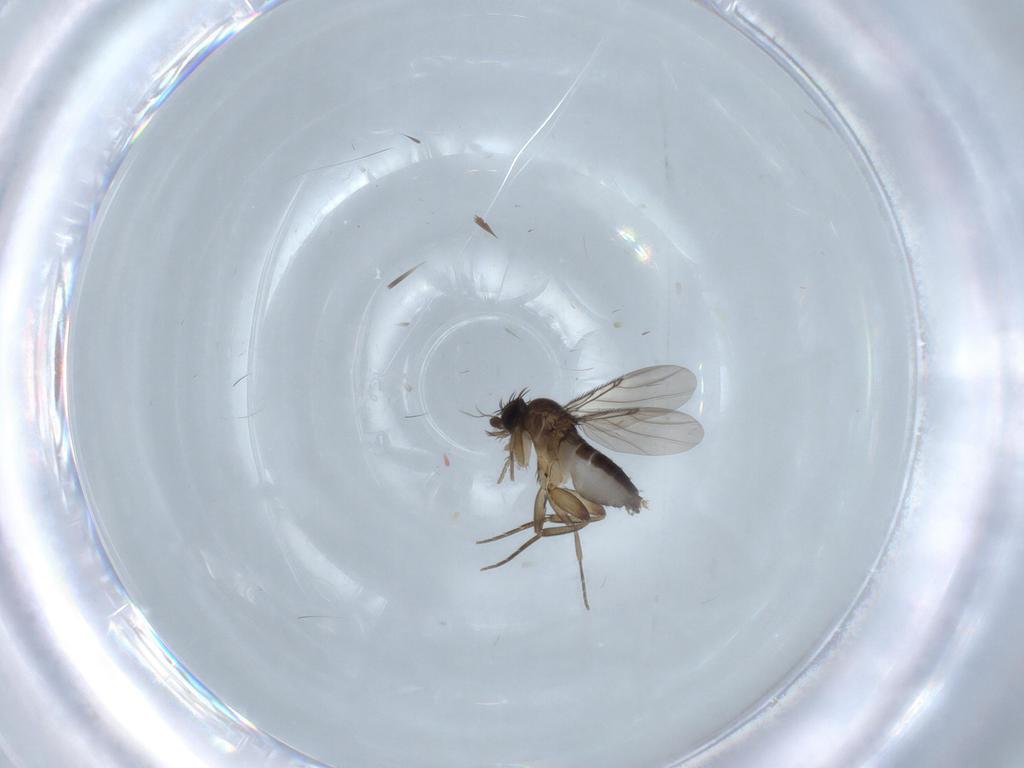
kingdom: Animalia
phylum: Arthropoda
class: Insecta
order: Diptera
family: Phoridae
